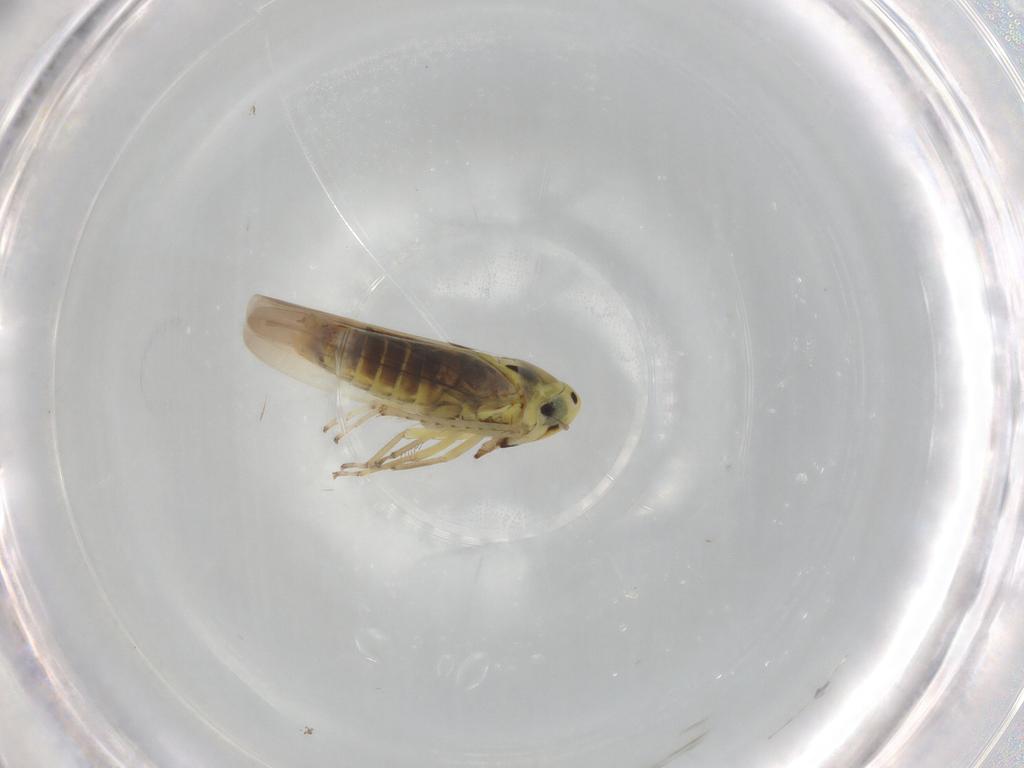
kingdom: Animalia
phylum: Arthropoda
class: Insecta
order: Hemiptera
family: Cicadellidae
